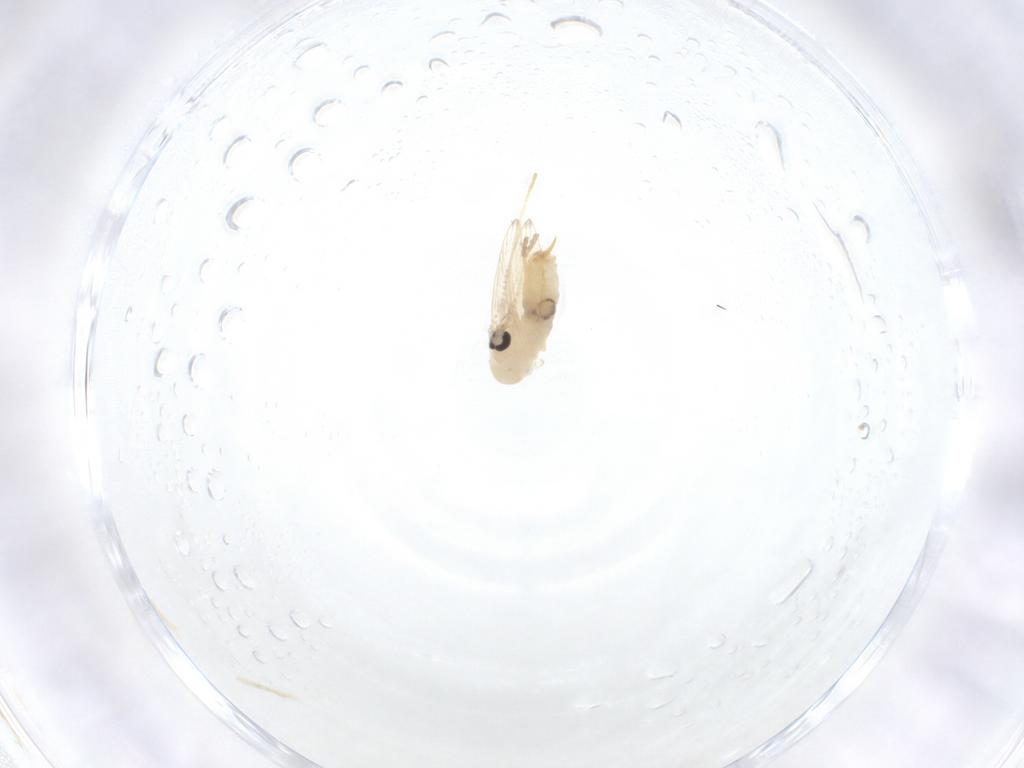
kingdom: Animalia
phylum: Arthropoda
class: Insecta
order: Diptera
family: Psychodidae
